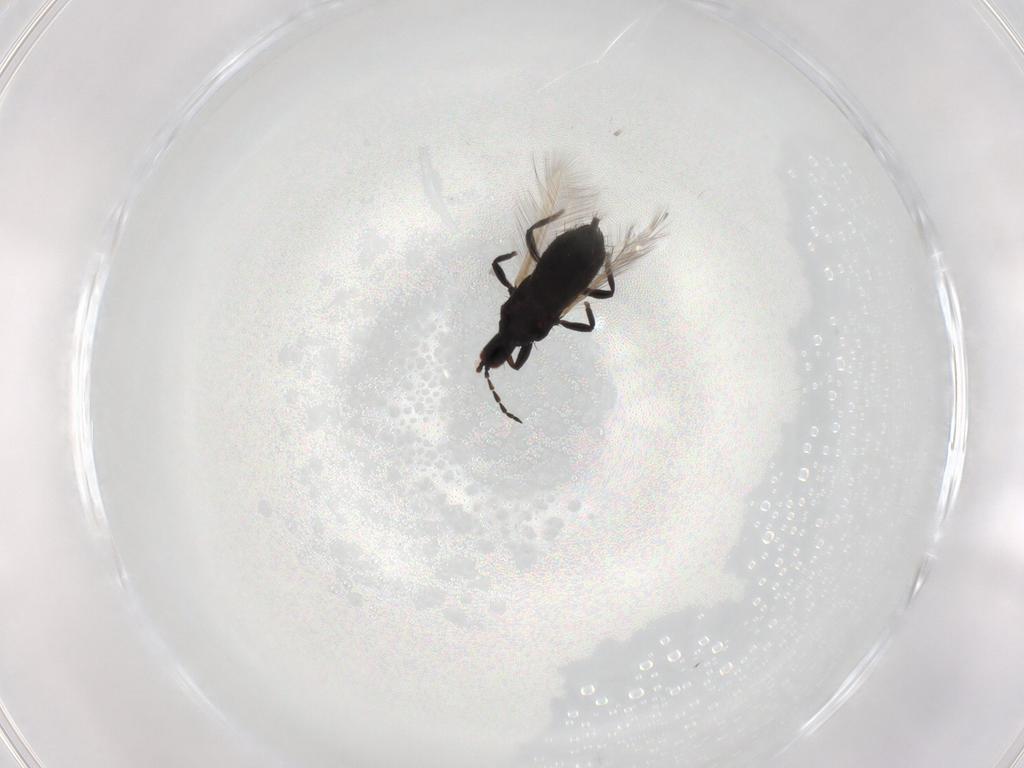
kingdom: Animalia
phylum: Arthropoda
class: Insecta
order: Thysanoptera
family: Phlaeothripidae
